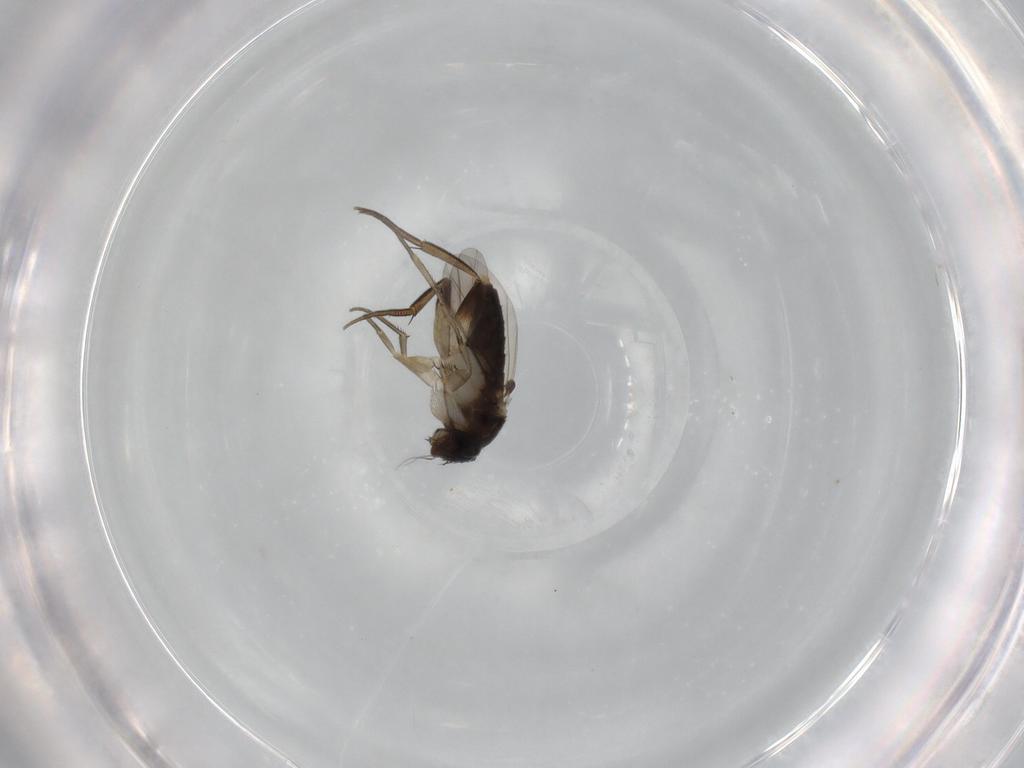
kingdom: Animalia
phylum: Arthropoda
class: Insecta
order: Diptera
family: Phoridae
